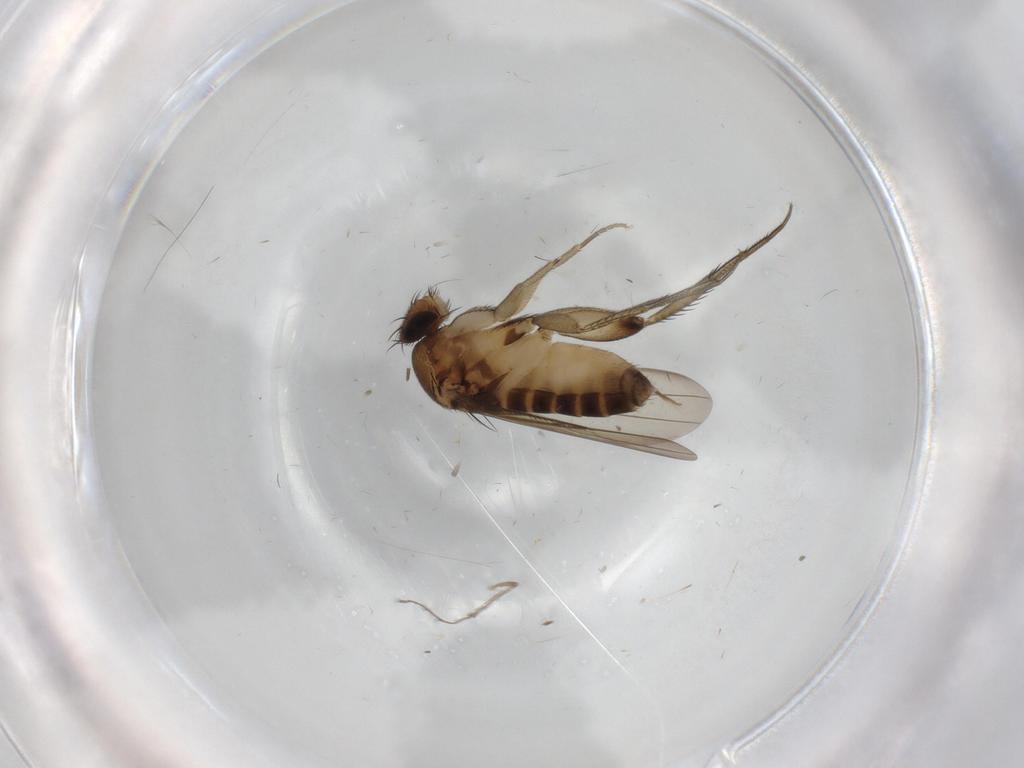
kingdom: Animalia
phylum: Arthropoda
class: Insecta
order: Diptera
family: Phoridae
